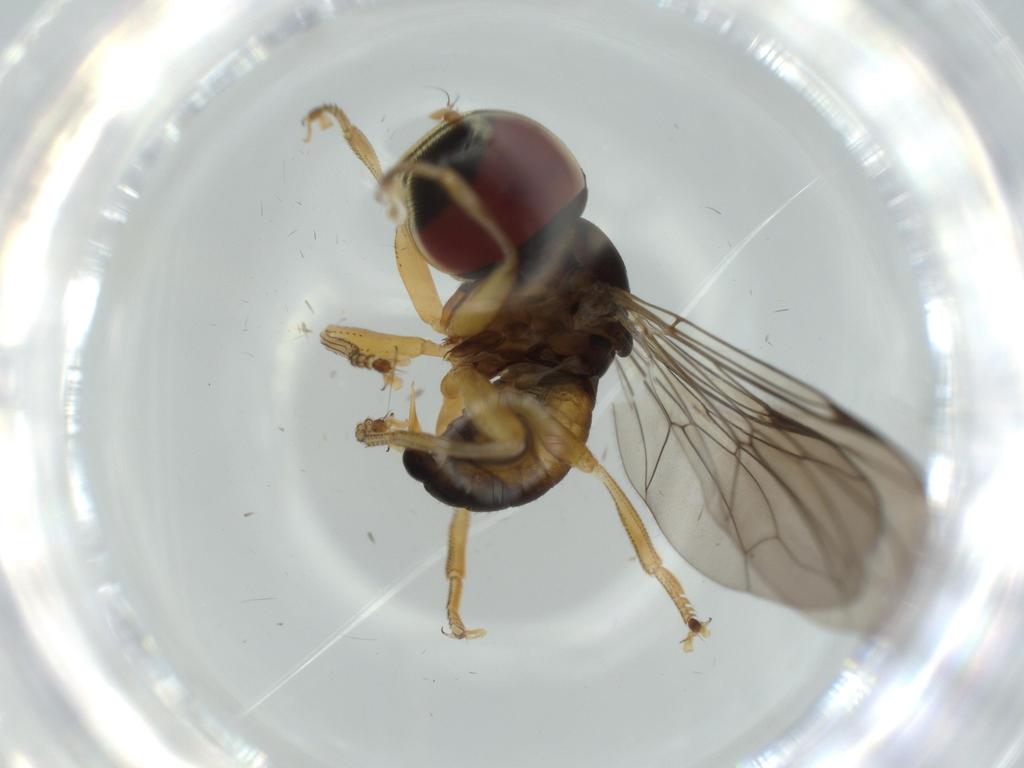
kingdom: Animalia
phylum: Arthropoda
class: Insecta
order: Diptera
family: Pipunculidae
